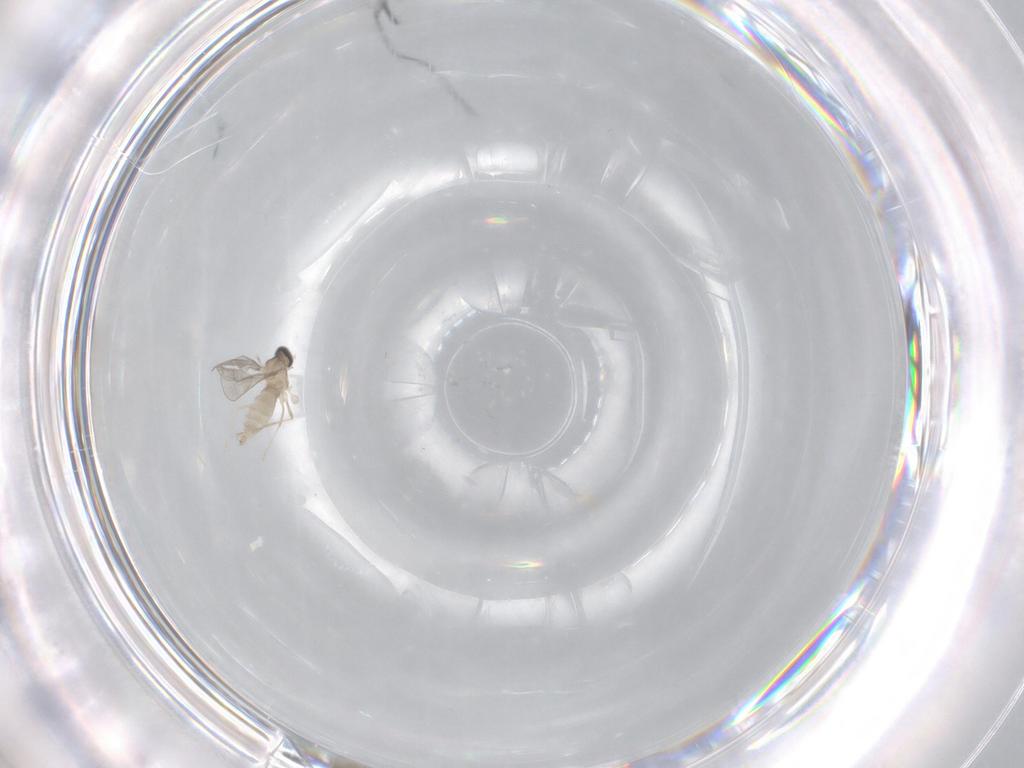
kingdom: Animalia
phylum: Arthropoda
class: Insecta
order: Diptera
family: Cecidomyiidae
